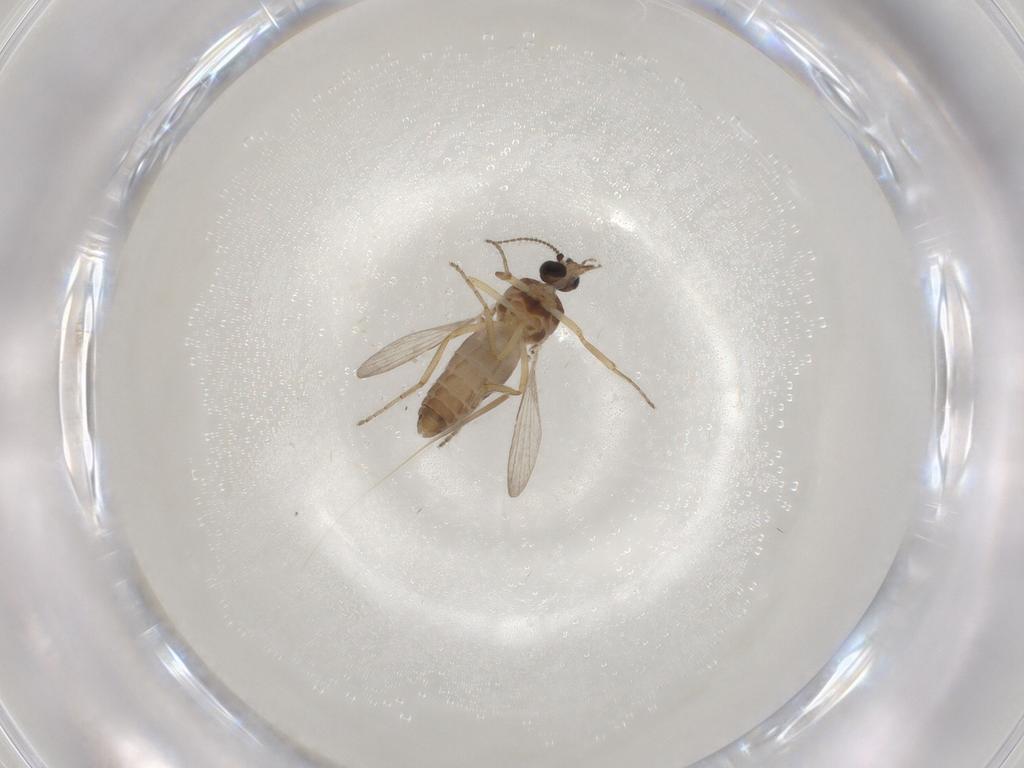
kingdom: Animalia
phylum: Arthropoda
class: Insecta
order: Diptera
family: Ceratopogonidae
